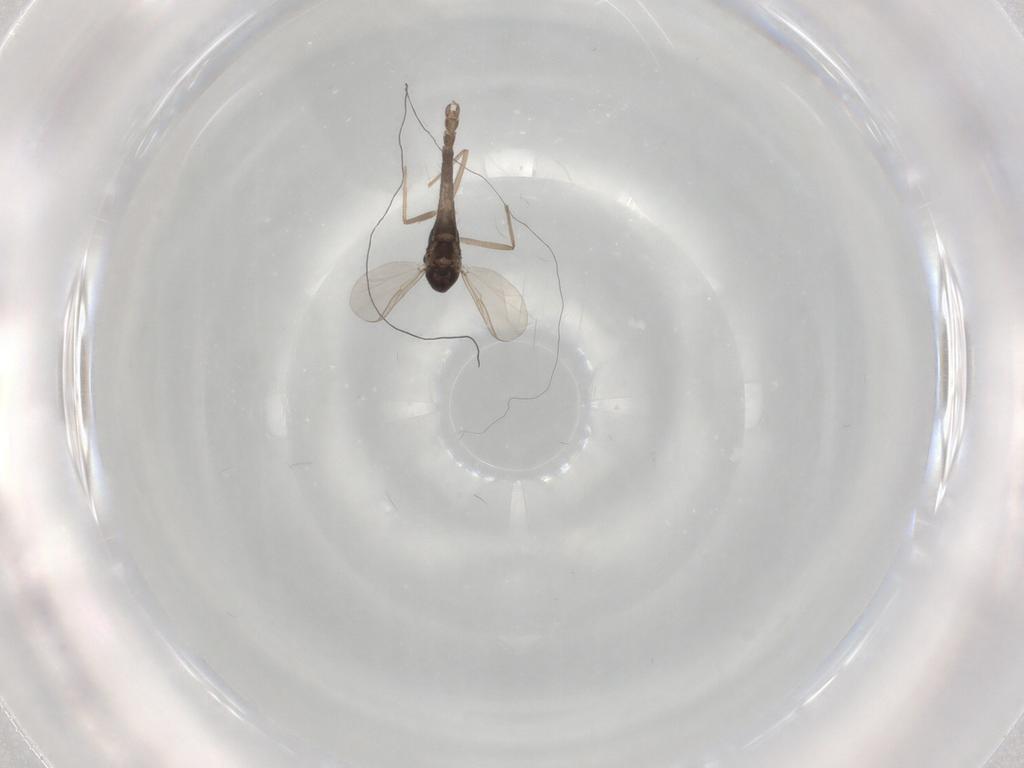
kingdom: Animalia
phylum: Arthropoda
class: Insecta
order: Diptera
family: Chironomidae
